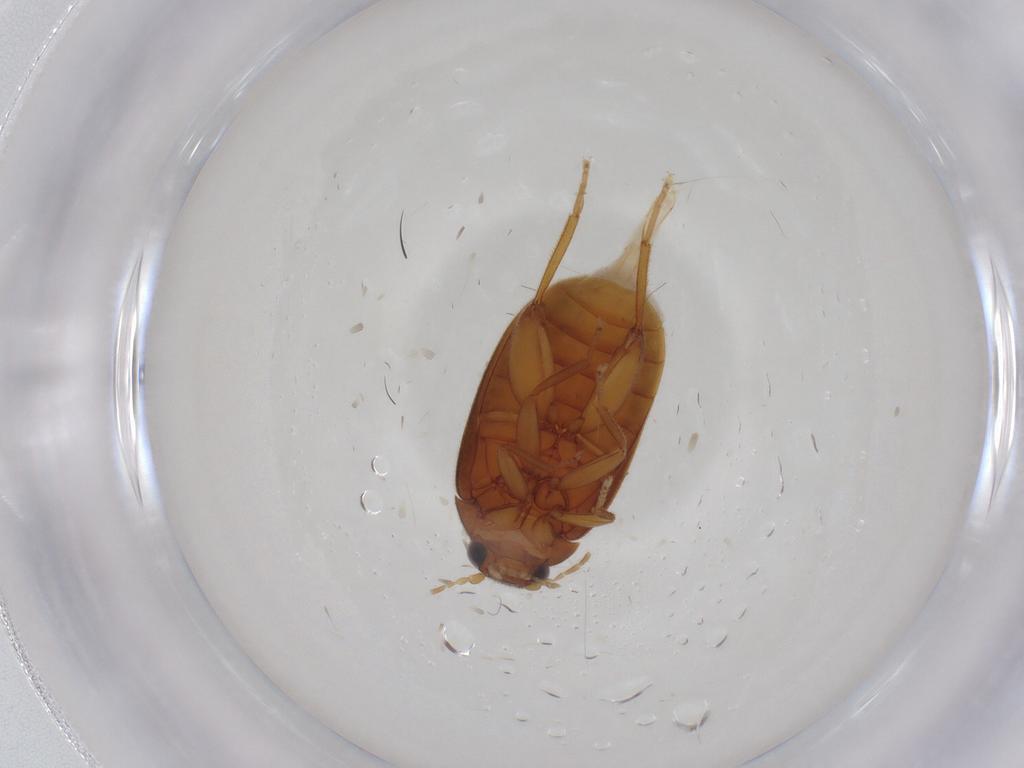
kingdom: Animalia
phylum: Arthropoda
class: Insecta
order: Coleoptera
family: Scirtidae
